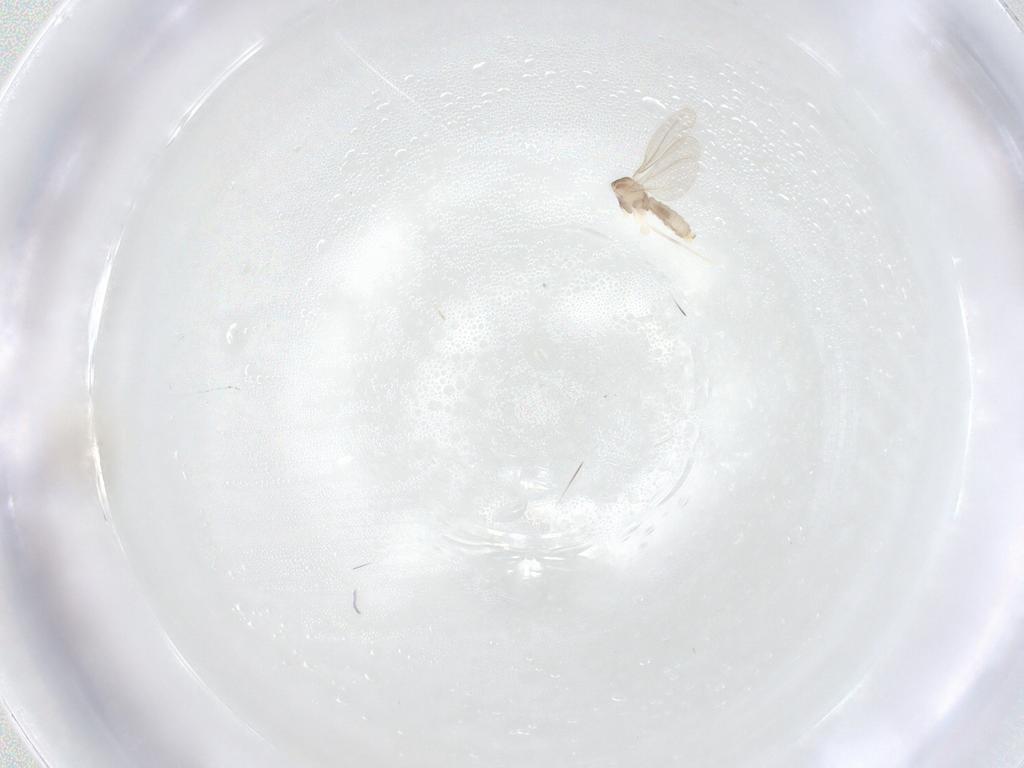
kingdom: Animalia
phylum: Arthropoda
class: Insecta
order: Diptera
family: Cecidomyiidae
